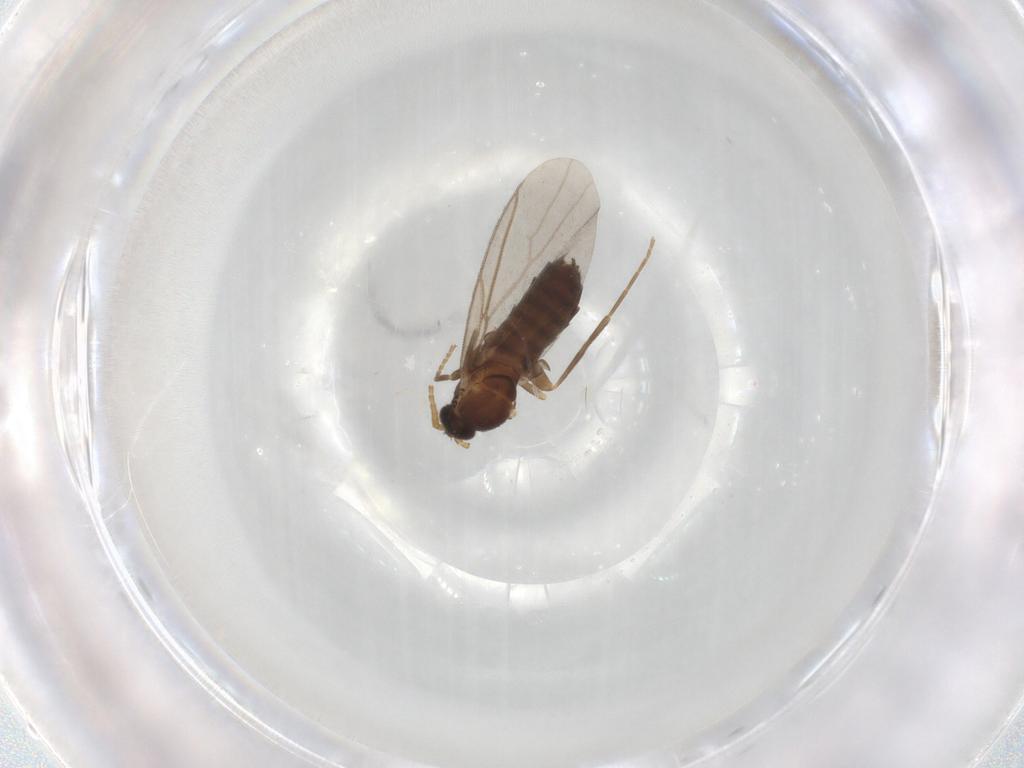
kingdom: Animalia
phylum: Arthropoda
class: Insecta
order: Diptera
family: Scatopsidae
